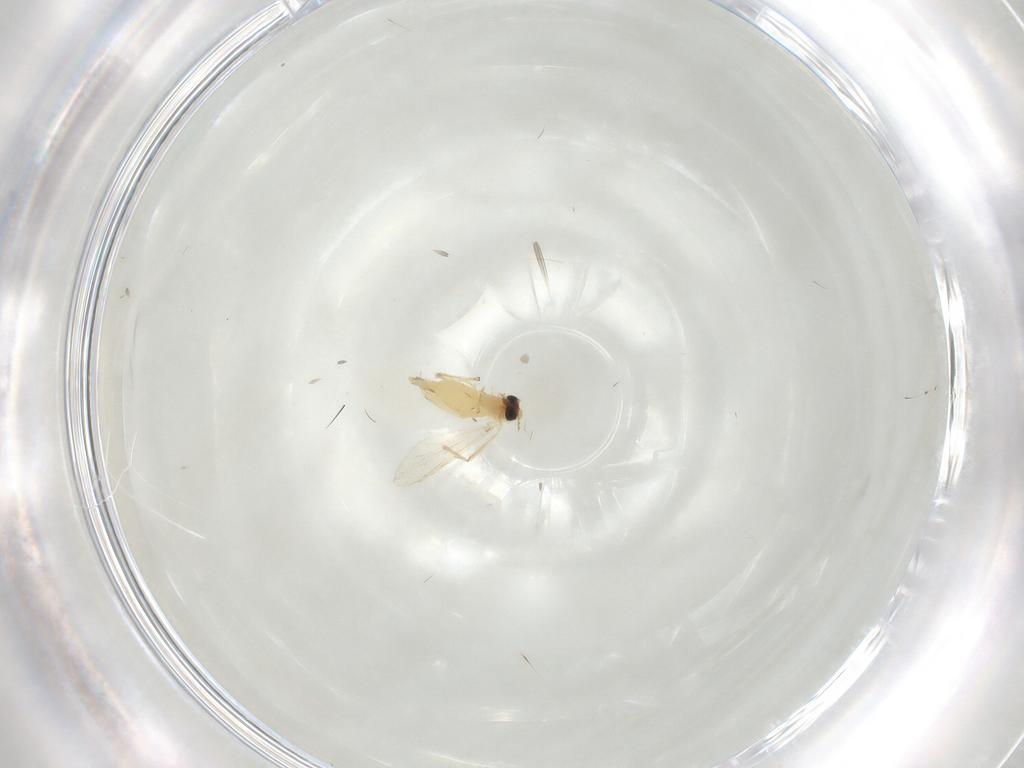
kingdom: Animalia
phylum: Arthropoda
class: Insecta
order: Diptera
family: Chironomidae
